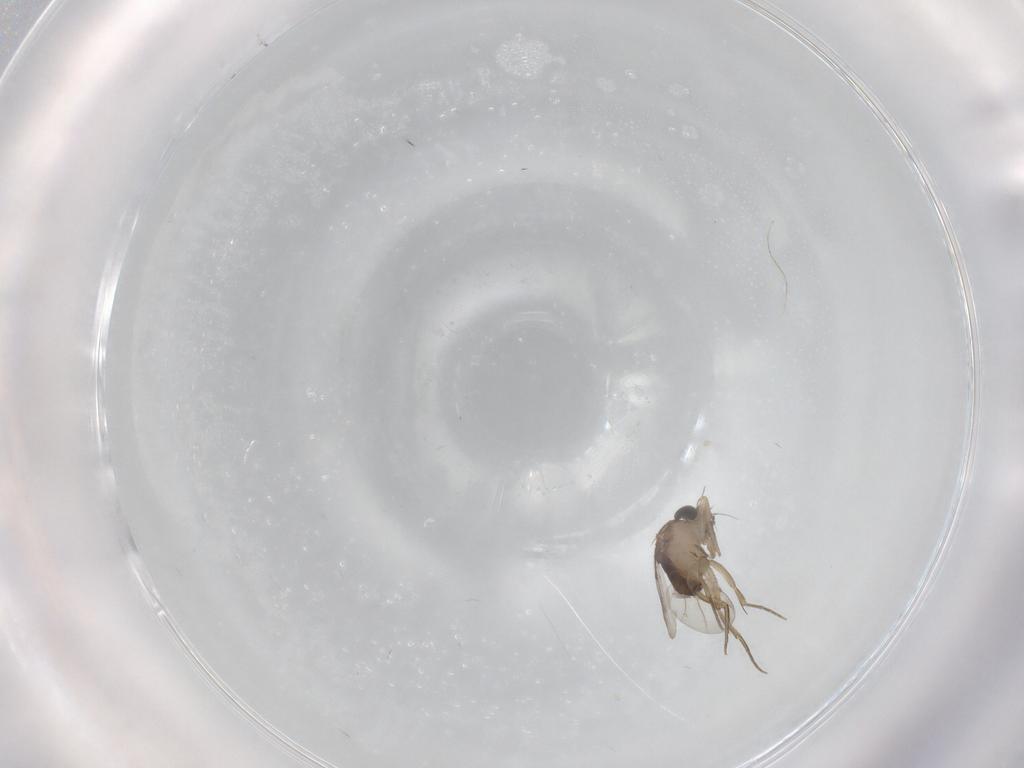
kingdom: Animalia
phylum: Arthropoda
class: Insecta
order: Diptera
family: Phoridae
